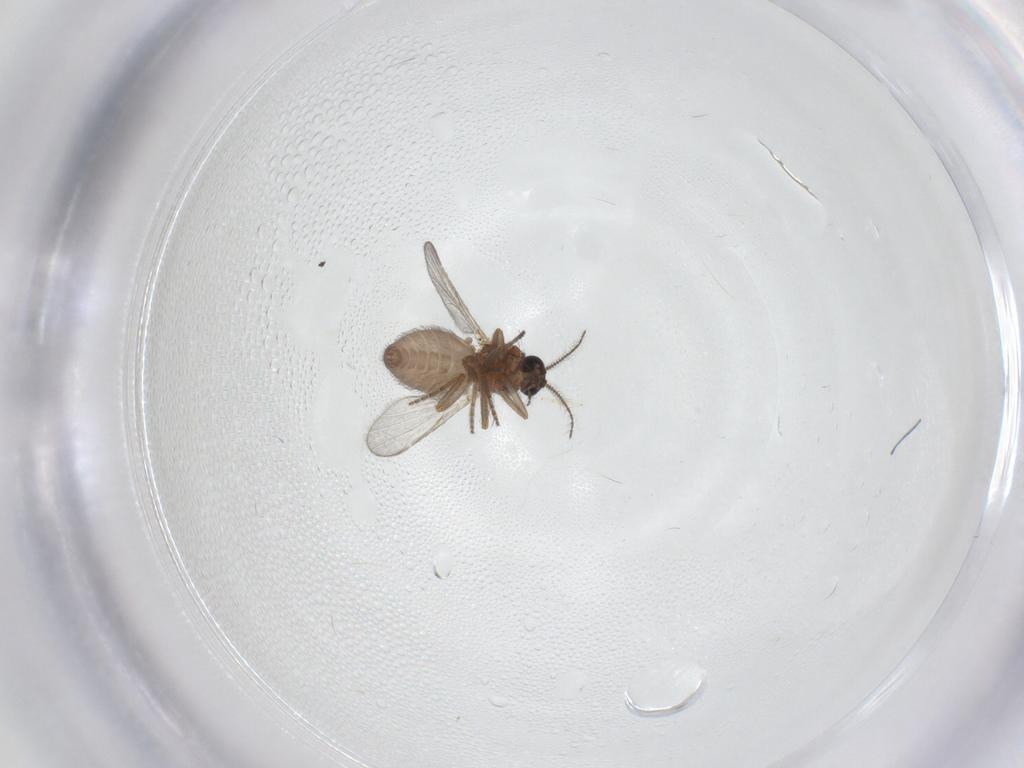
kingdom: Animalia
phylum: Arthropoda
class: Insecta
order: Diptera
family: Ceratopogonidae
